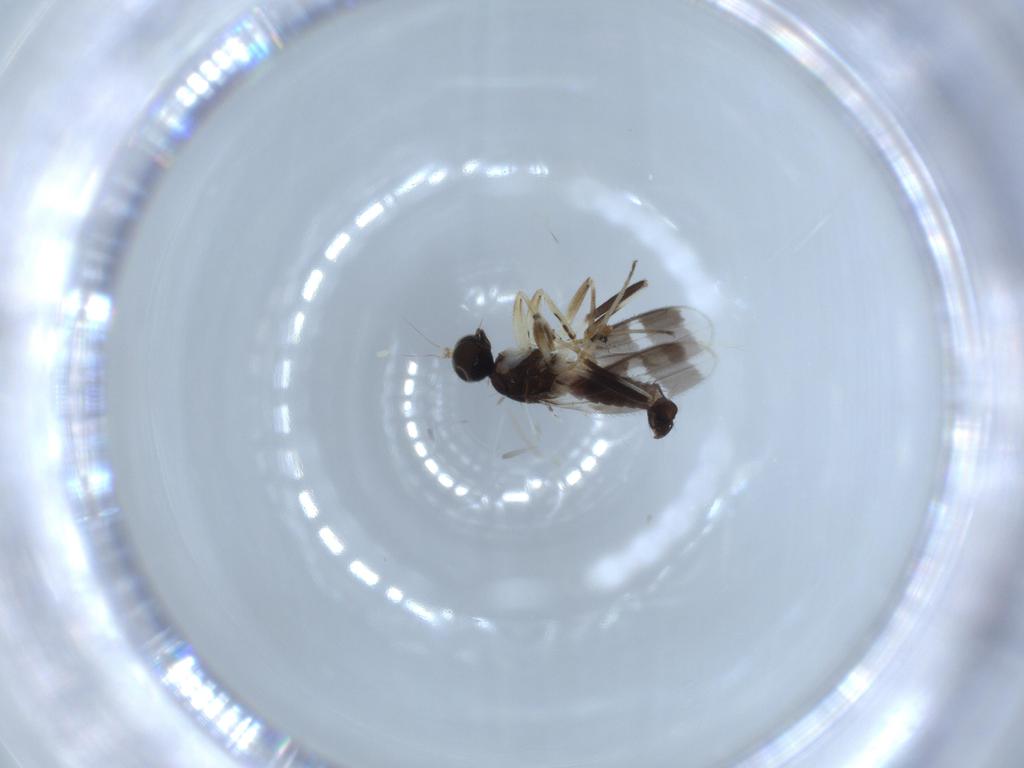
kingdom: Animalia
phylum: Arthropoda
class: Insecta
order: Diptera
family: Hybotidae
